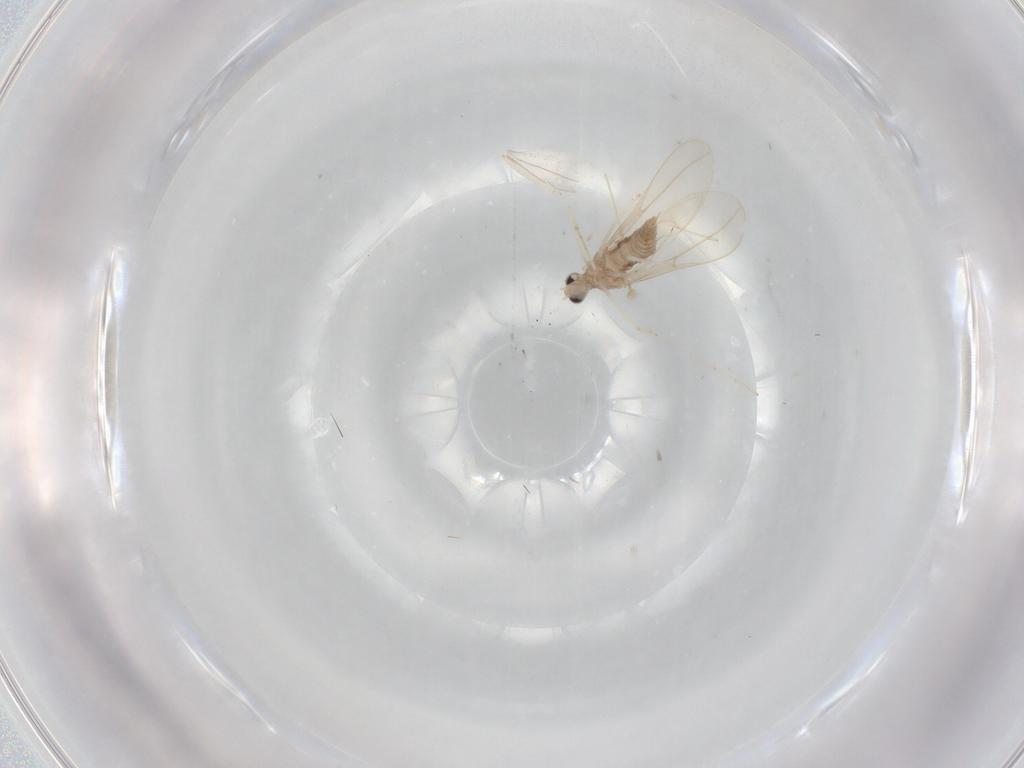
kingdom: Animalia
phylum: Arthropoda
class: Insecta
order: Diptera
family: Cecidomyiidae
